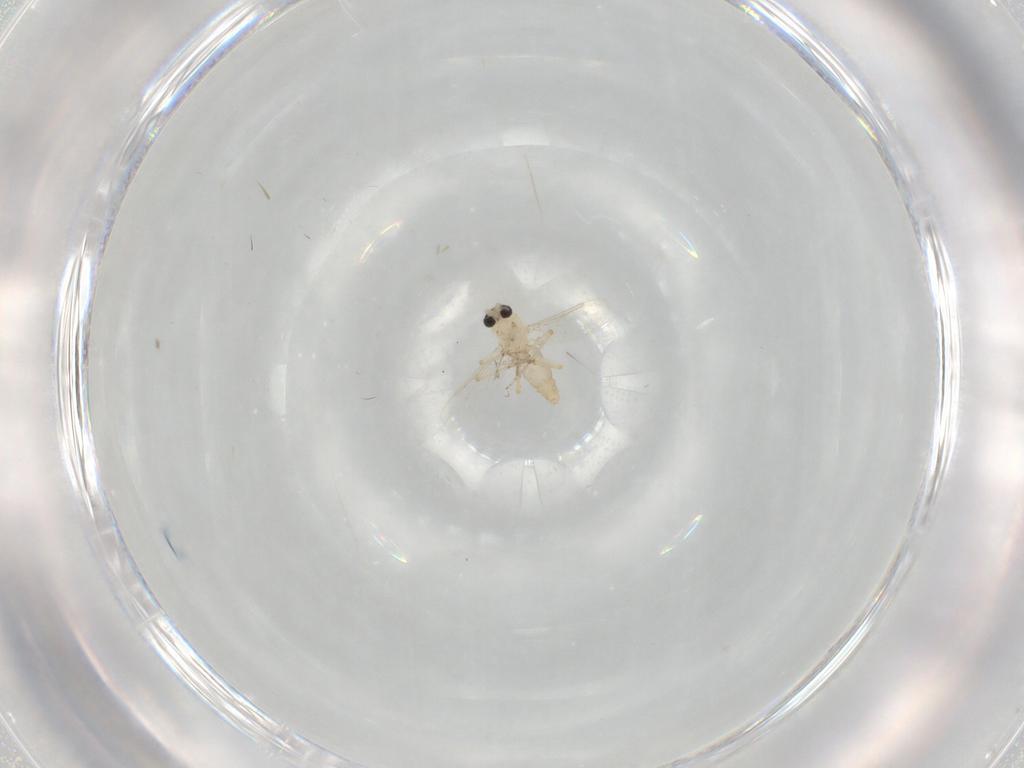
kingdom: Animalia
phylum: Arthropoda
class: Insecta
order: Diptera
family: Ceratopogonidae
